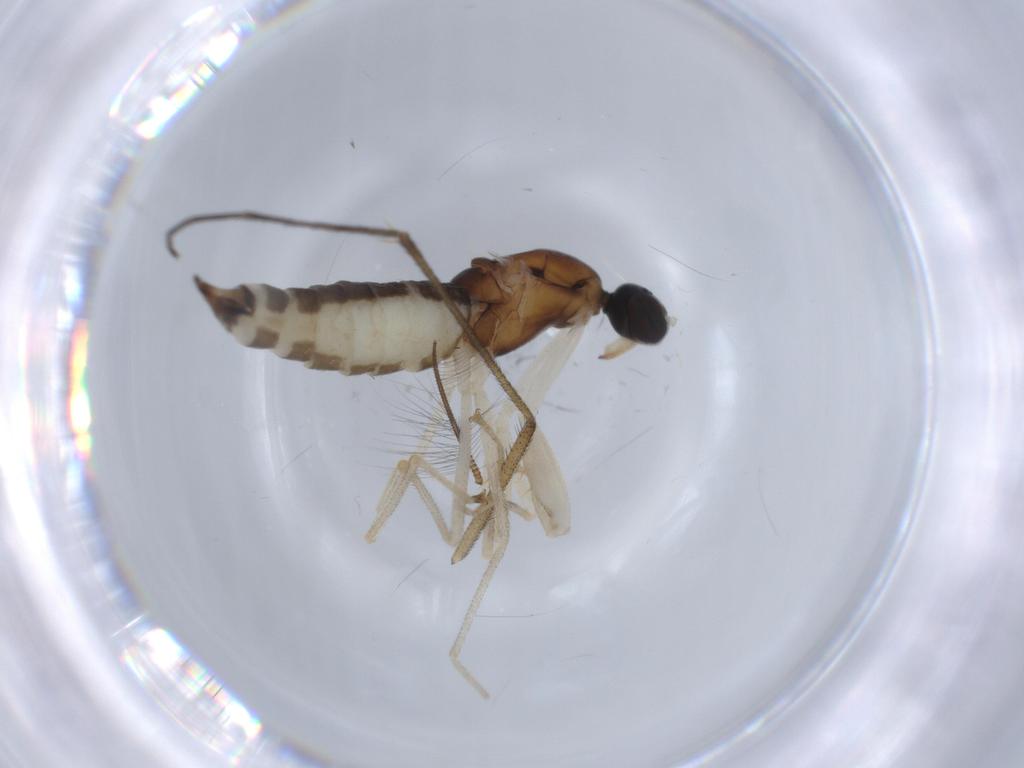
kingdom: Animalia
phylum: Arthropoda
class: Insecta
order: Diptera
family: Empididae
